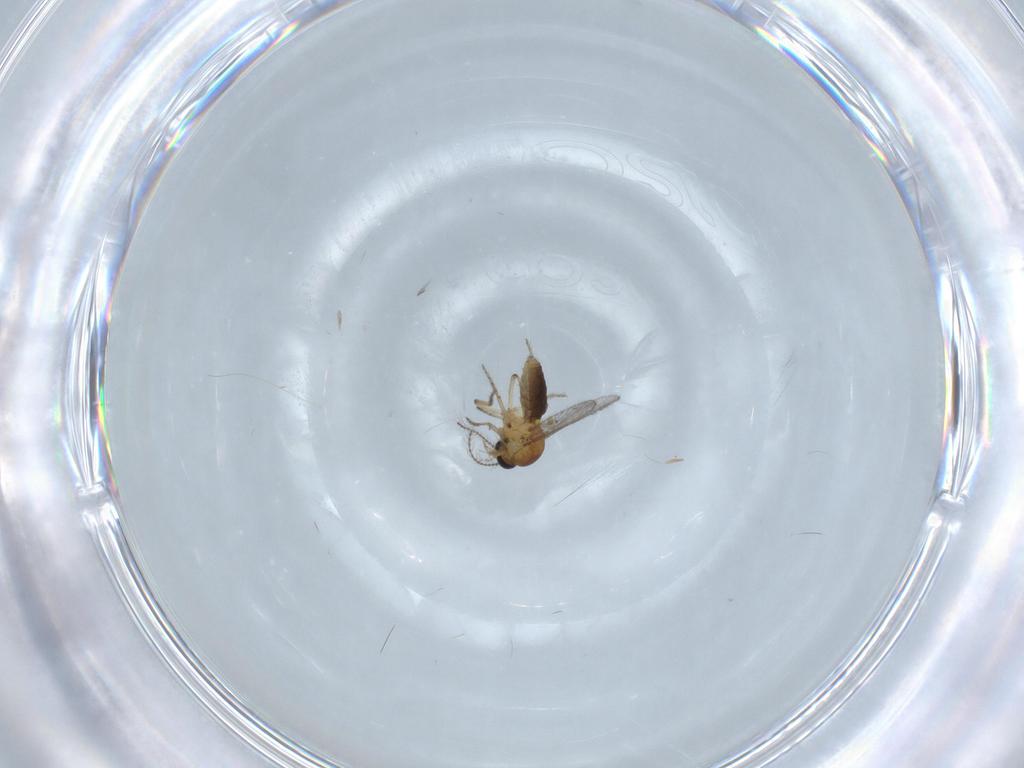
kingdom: Animalia
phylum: Arthropoda
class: Insecta
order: Diptera
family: Ceratopogonidae
